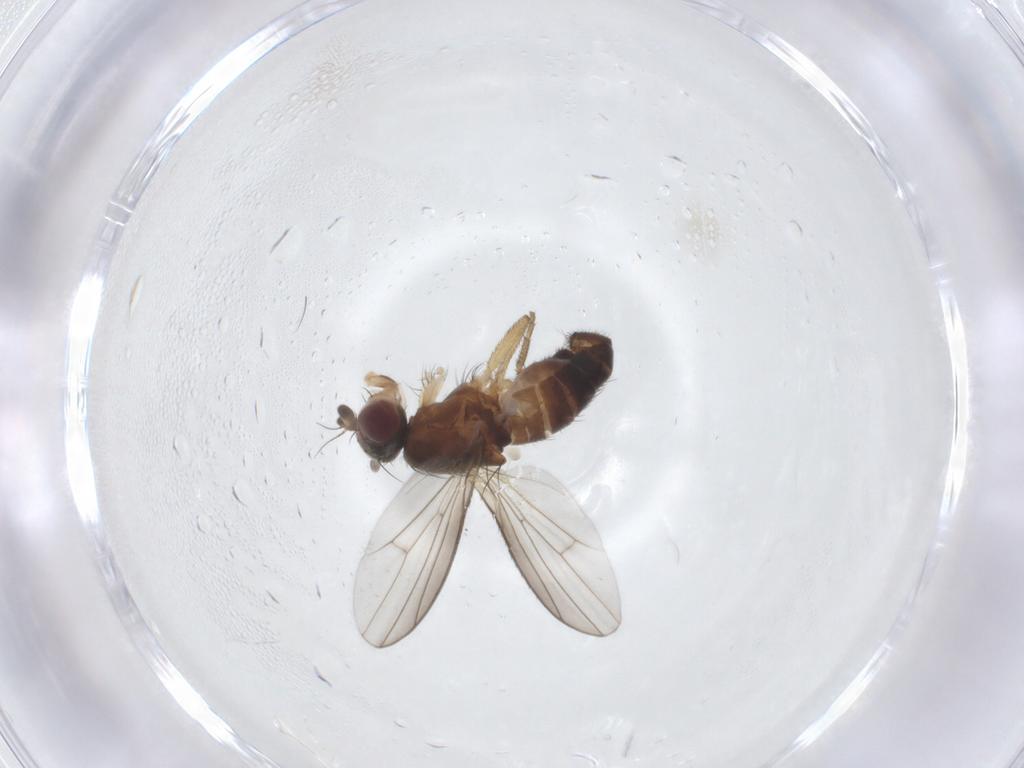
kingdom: Animalia
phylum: Arthropoda
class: Insecta
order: Diptera
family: Heleomyzidae
